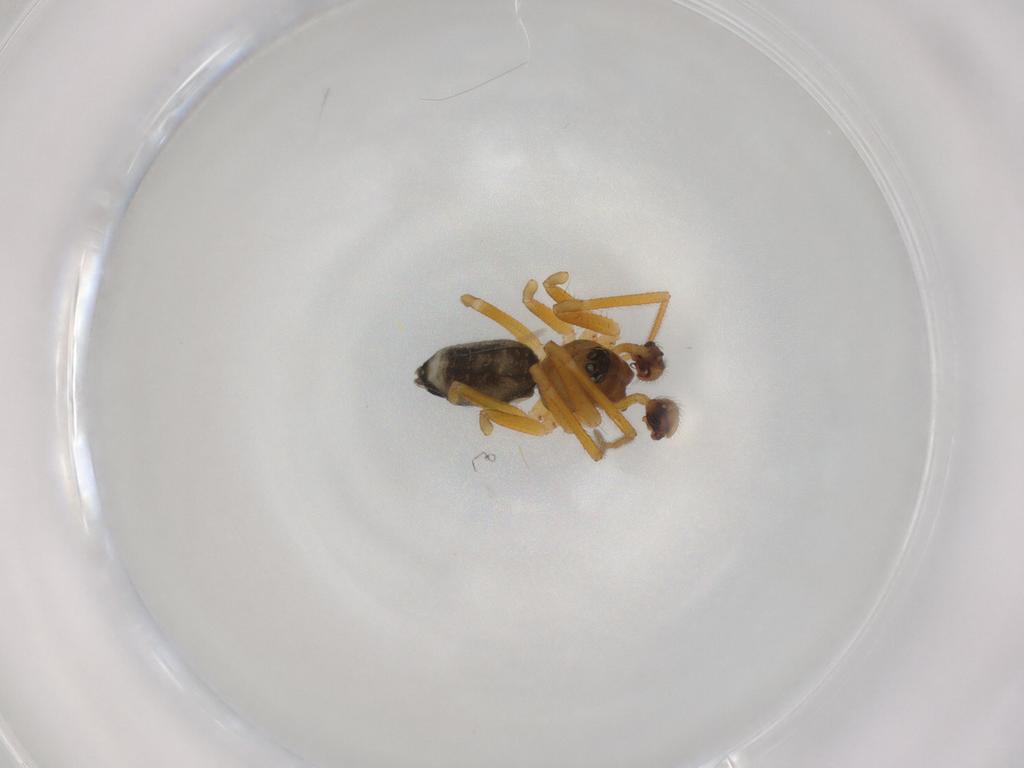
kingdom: Animalia
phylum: Arthropoda
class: Arachnida
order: Araneae
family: Linyphiidae
